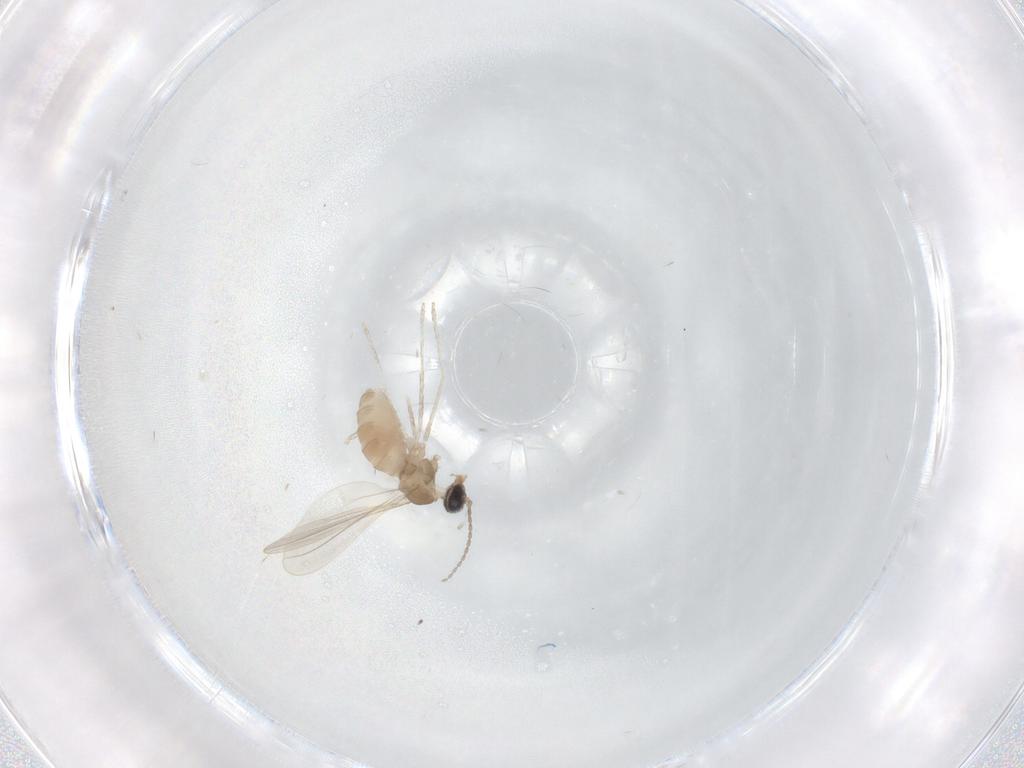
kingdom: Animalia
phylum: Arthropoda
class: Insecta
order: Diptera
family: Cecidomyiidae
